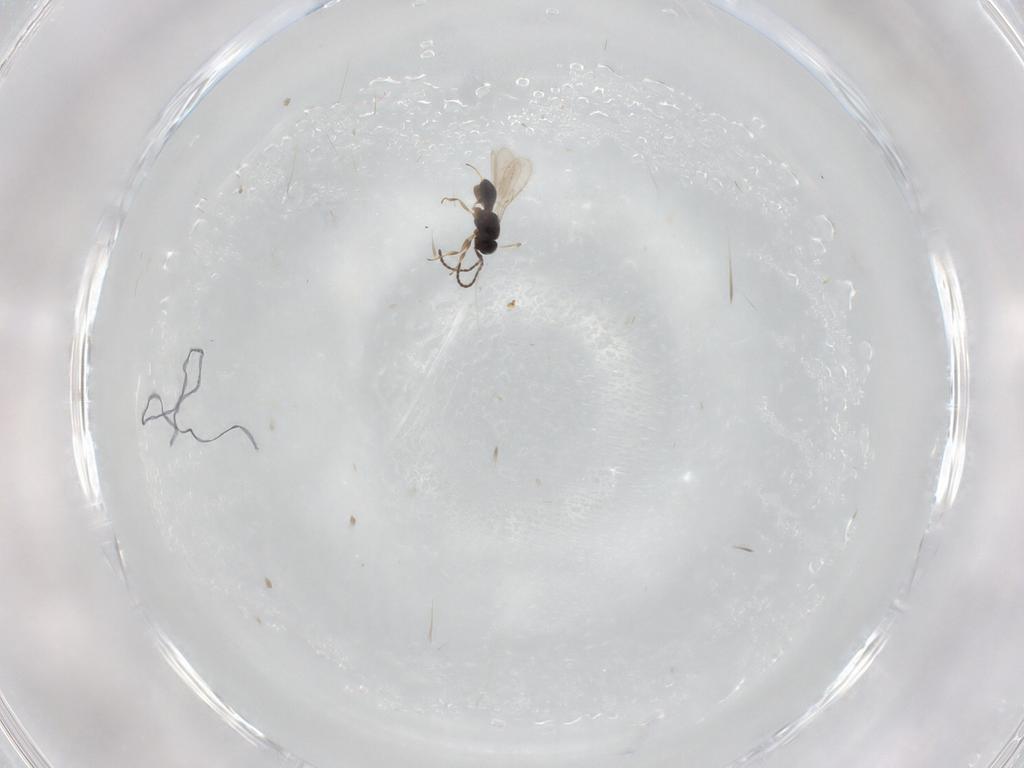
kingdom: Animalia
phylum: Arthropoda
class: Insecta
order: Hymenoptera
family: Scelionidae
